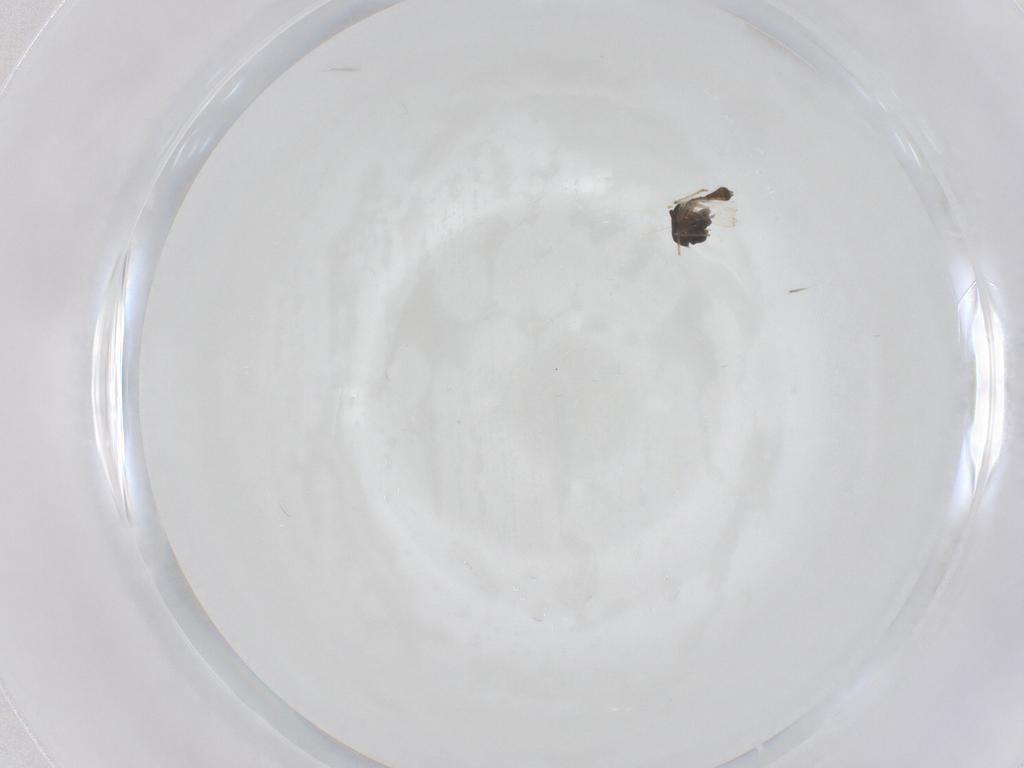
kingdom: Animalia
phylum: Arthropoda
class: Insecta
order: Diptera
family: Chironomidae
